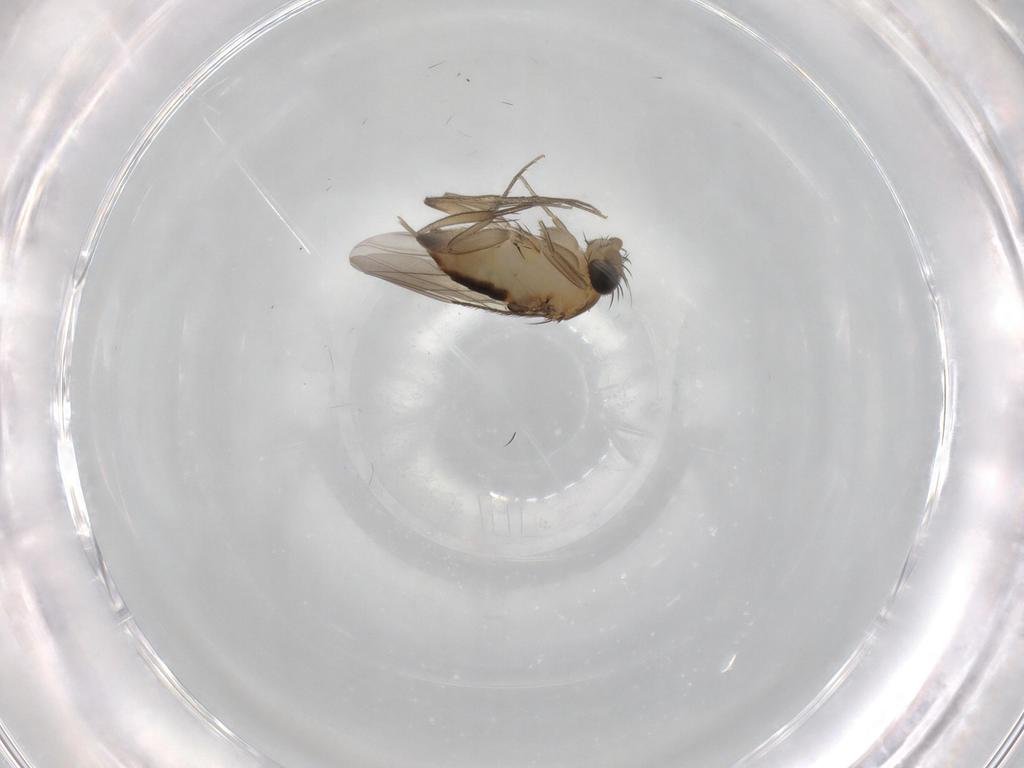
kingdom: Animalia
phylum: Arthropoda
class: Insecta
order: Diptera
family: Phoridae
